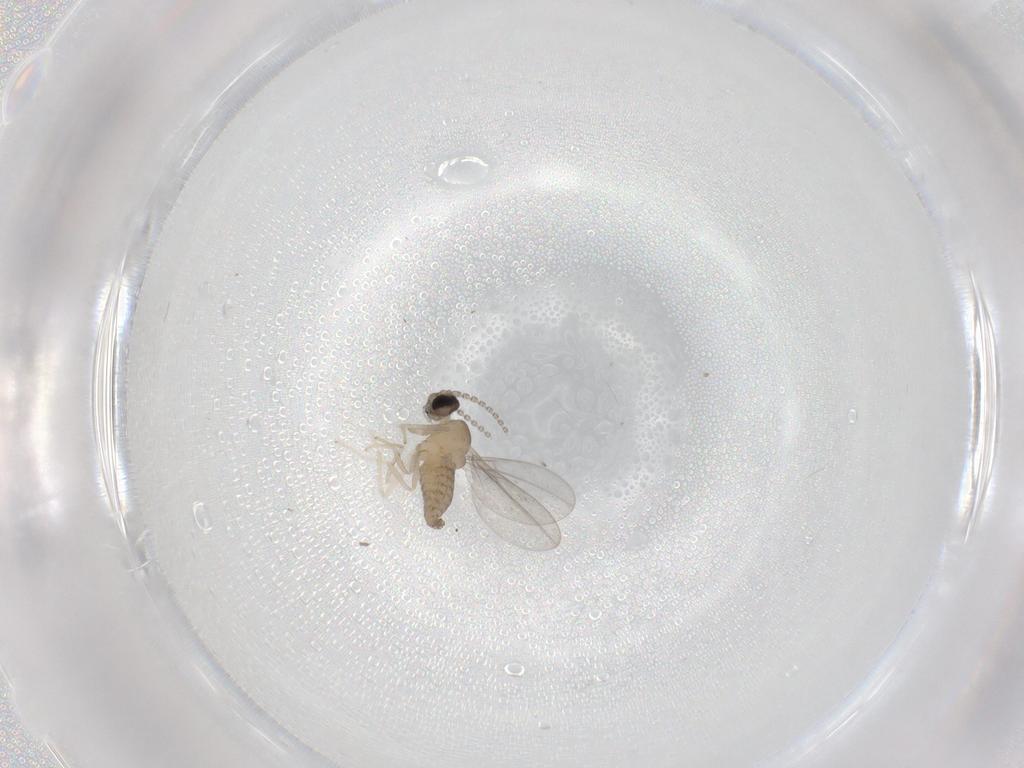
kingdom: Animalia
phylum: Arthropoda
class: Insecta
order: Diptera
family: Cecidomyiidae
